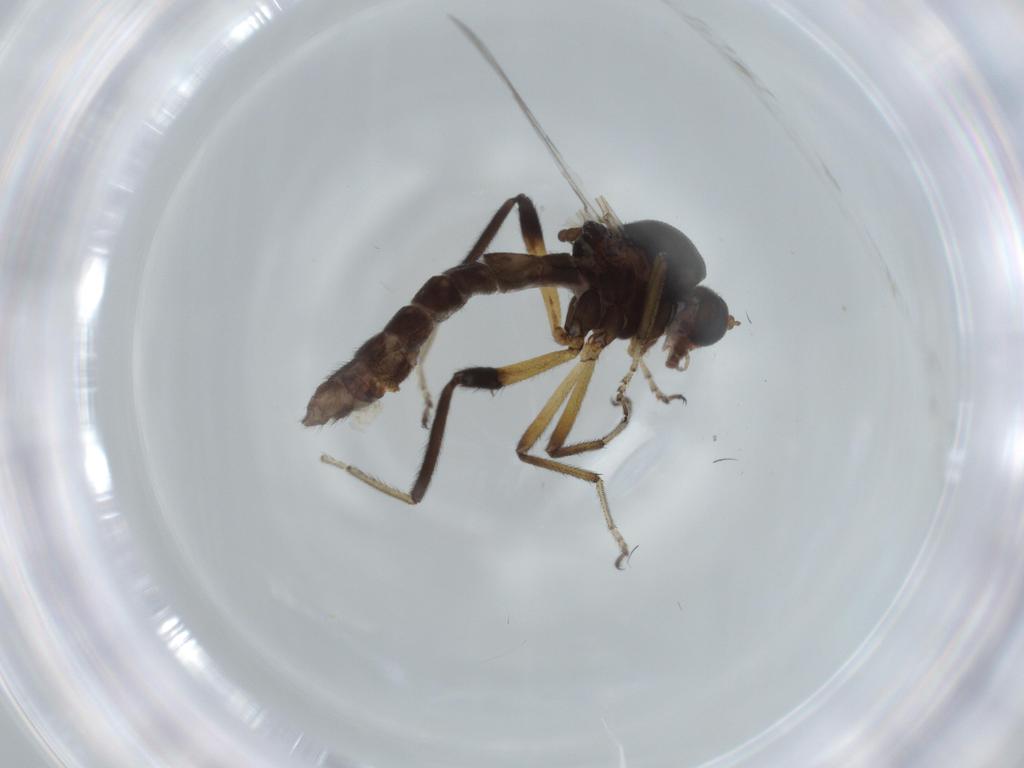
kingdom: Animalia
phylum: Arthropoda
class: Insecta
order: Diptera
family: Ceratopogonidae
